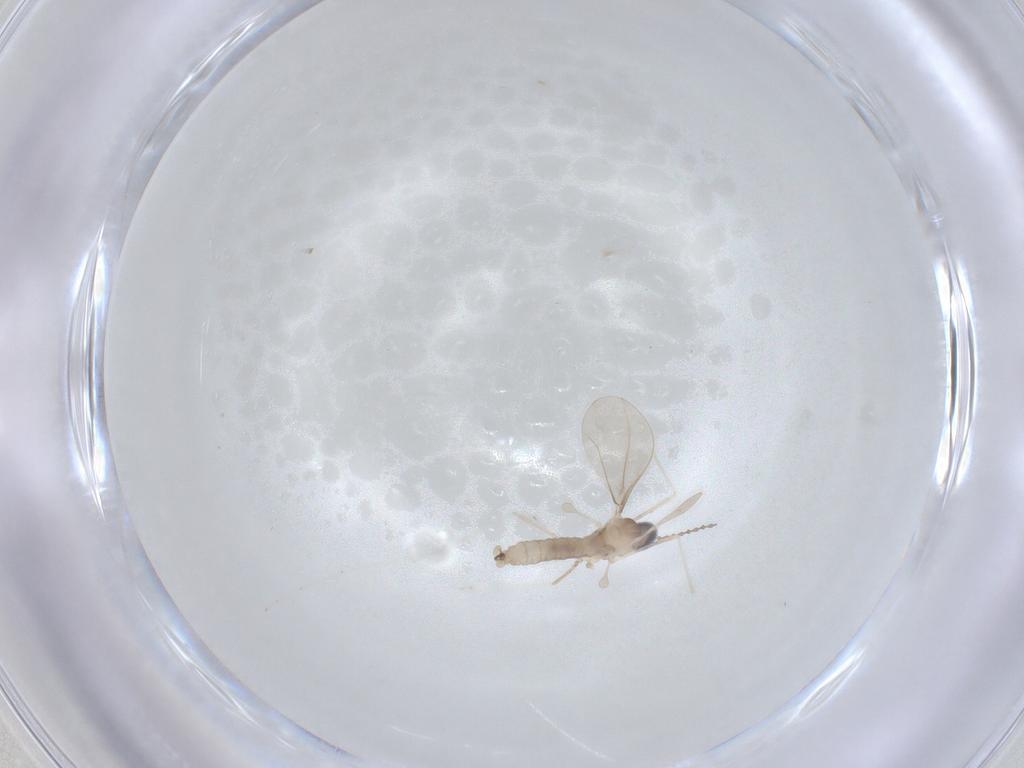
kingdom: Animalia
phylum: Arthropoda
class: Insecta
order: Diptera
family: Cecidomyiidae
